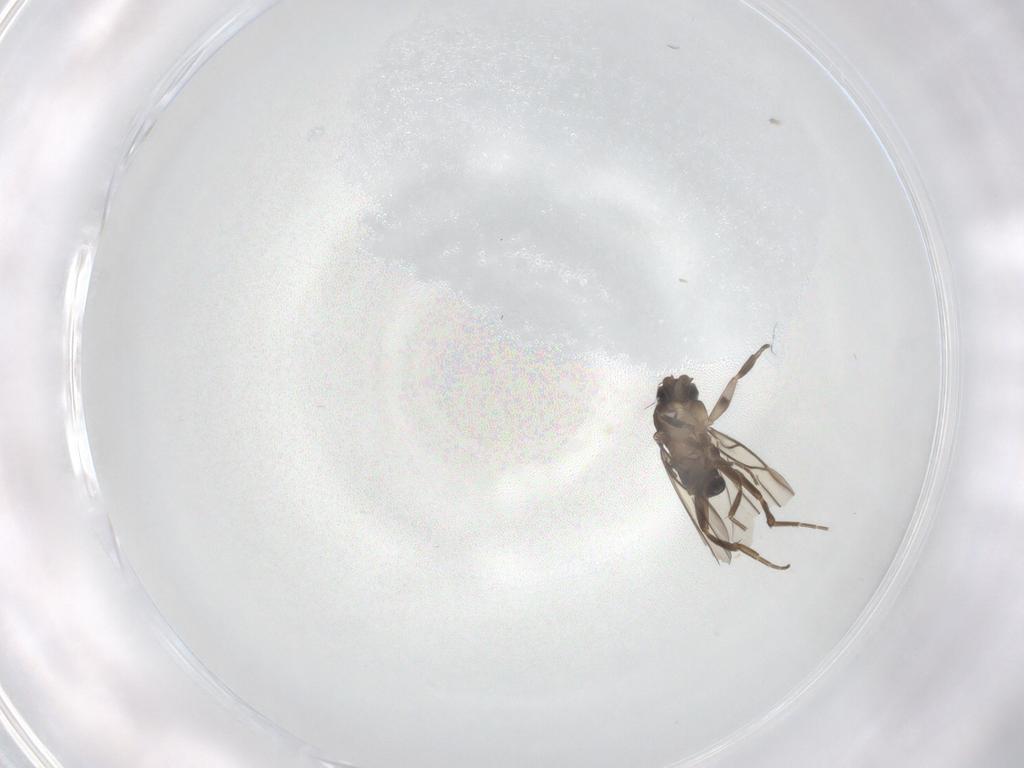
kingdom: Animalia
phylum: Arthropoda
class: Insecta
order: Diptera
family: Phoridae
